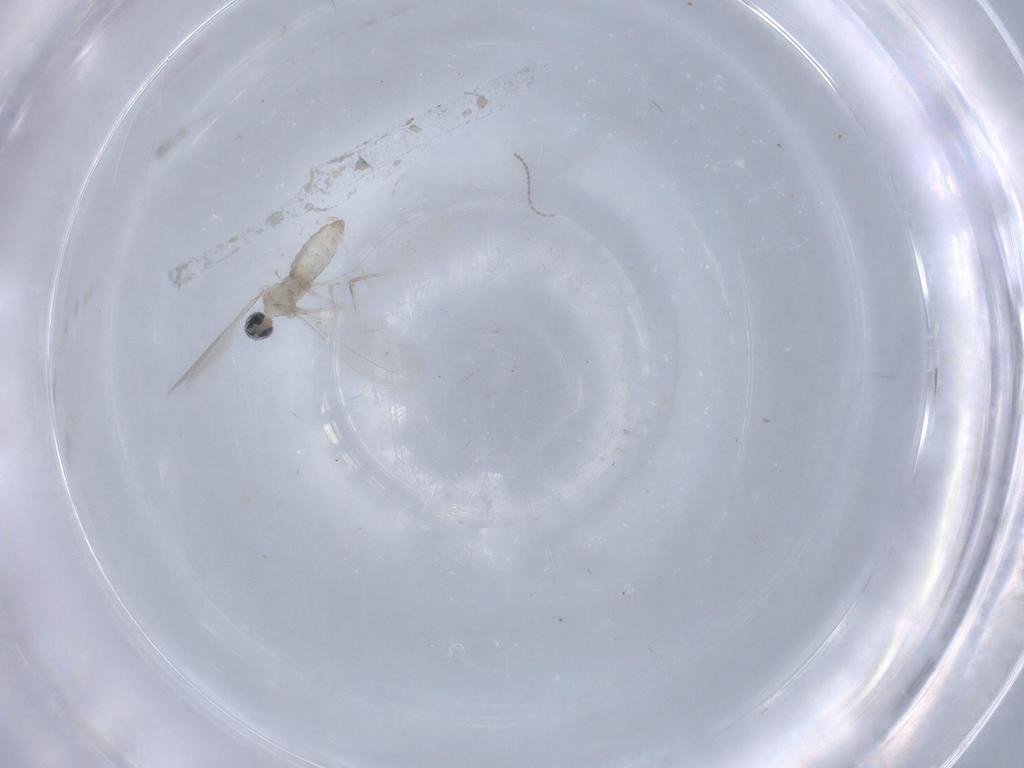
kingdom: Animalia
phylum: Arthropoda
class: Insecta
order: Diptera
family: Cecidomyiidae
